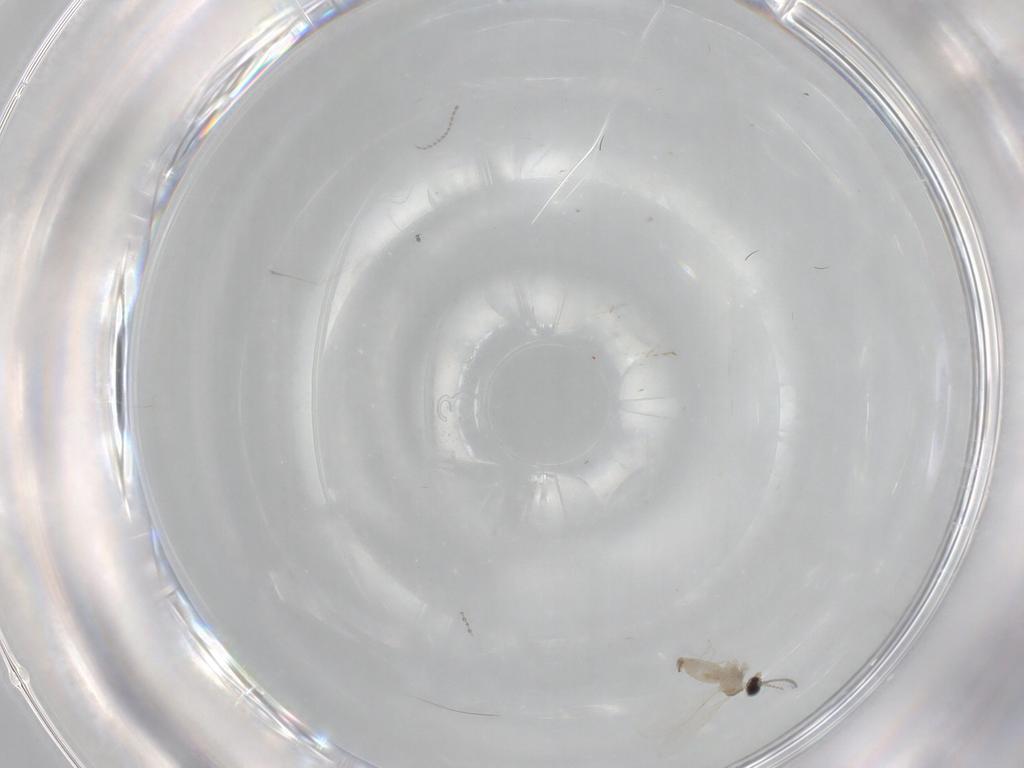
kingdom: Animalia
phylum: Arthropoda
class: Insecta
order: Diptera
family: Cecidomyiidae
